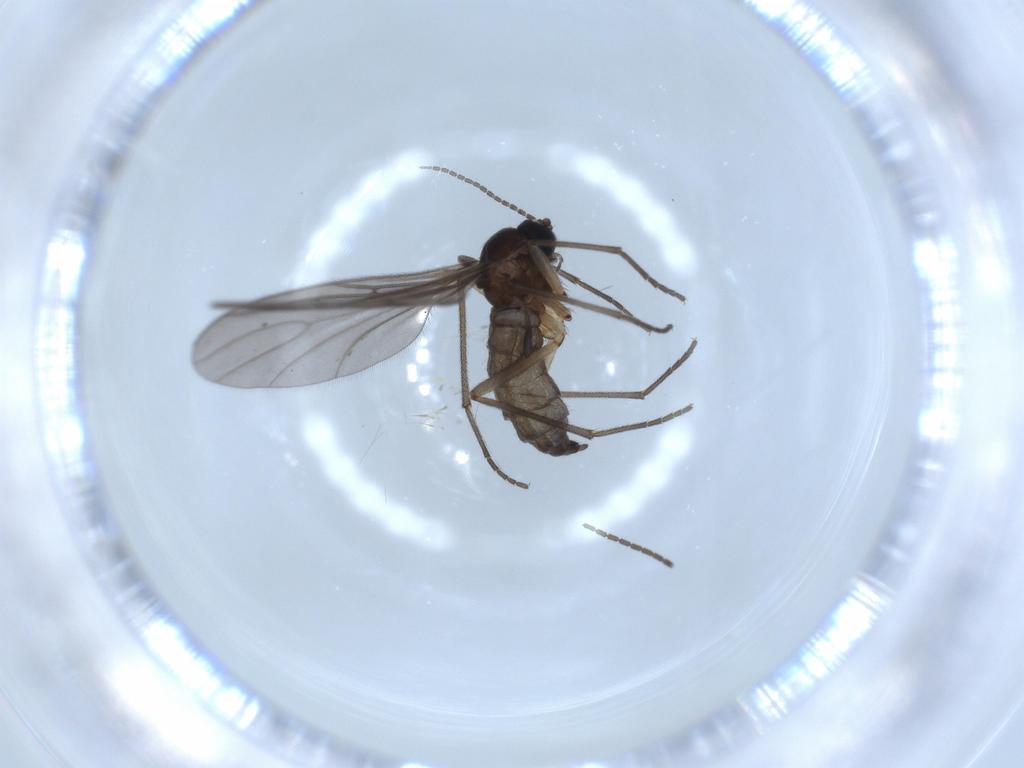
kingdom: Animalia
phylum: Arthropoda
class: Insecta
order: Diptera
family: Sciaridae
